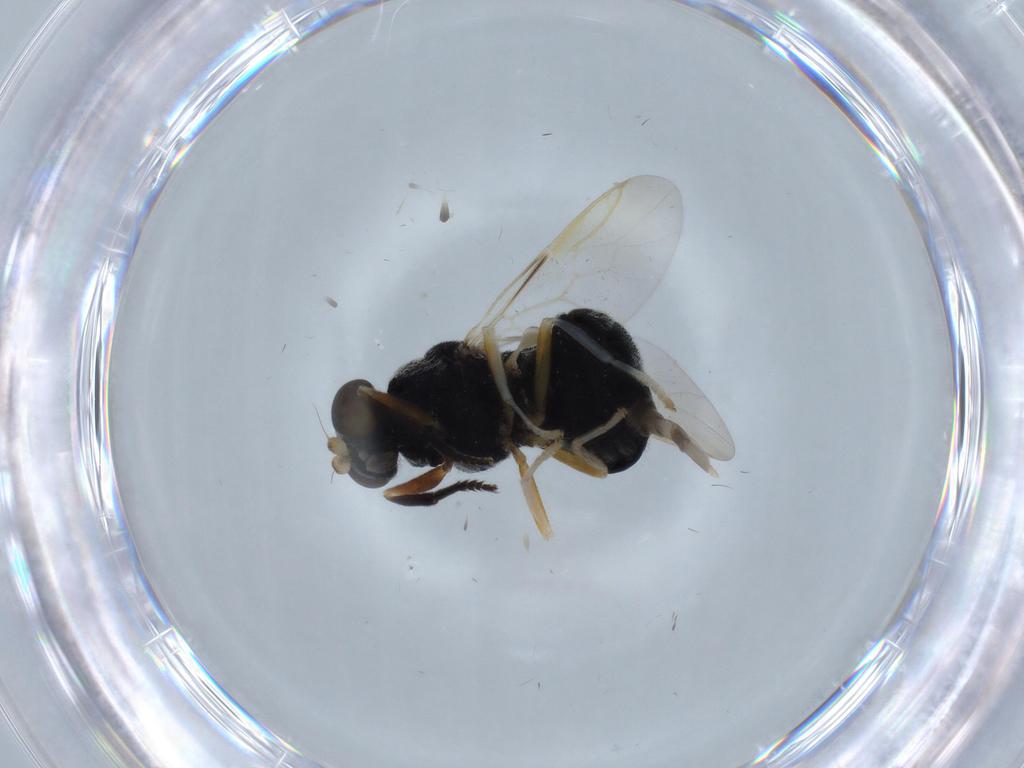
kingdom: Animalia
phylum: Arthropoda
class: Insecta
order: Diptera
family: Stratiomyidae
